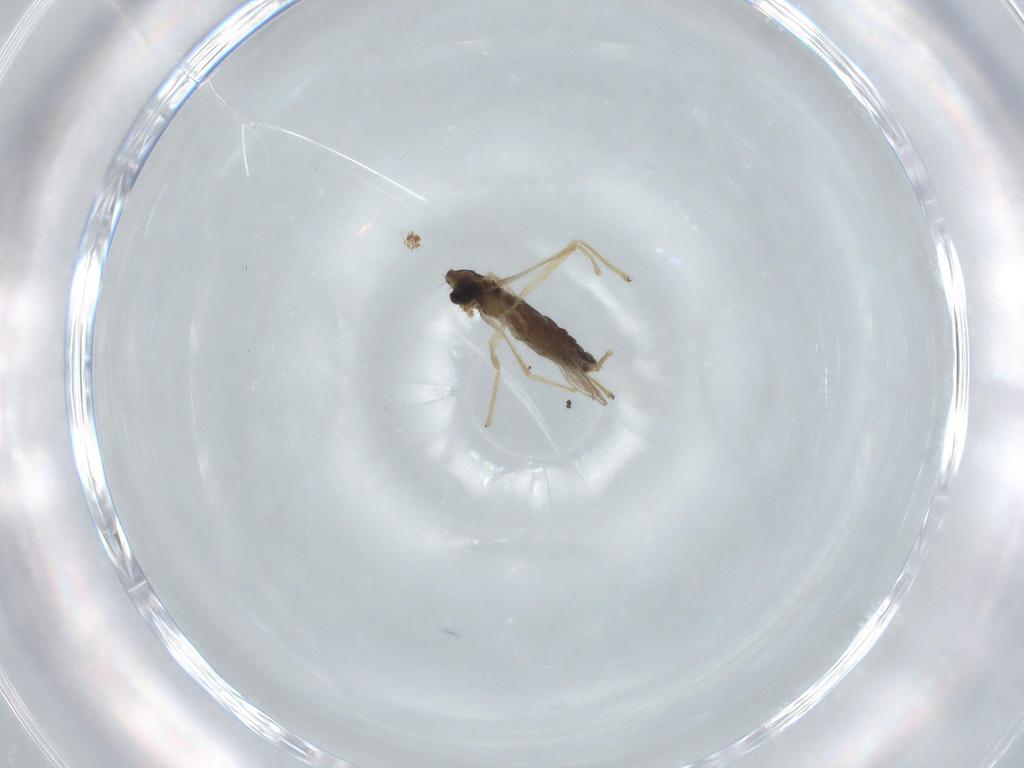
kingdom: Animalia
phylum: Arthropoda
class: Insecta
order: Diptera
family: Chironomidae
